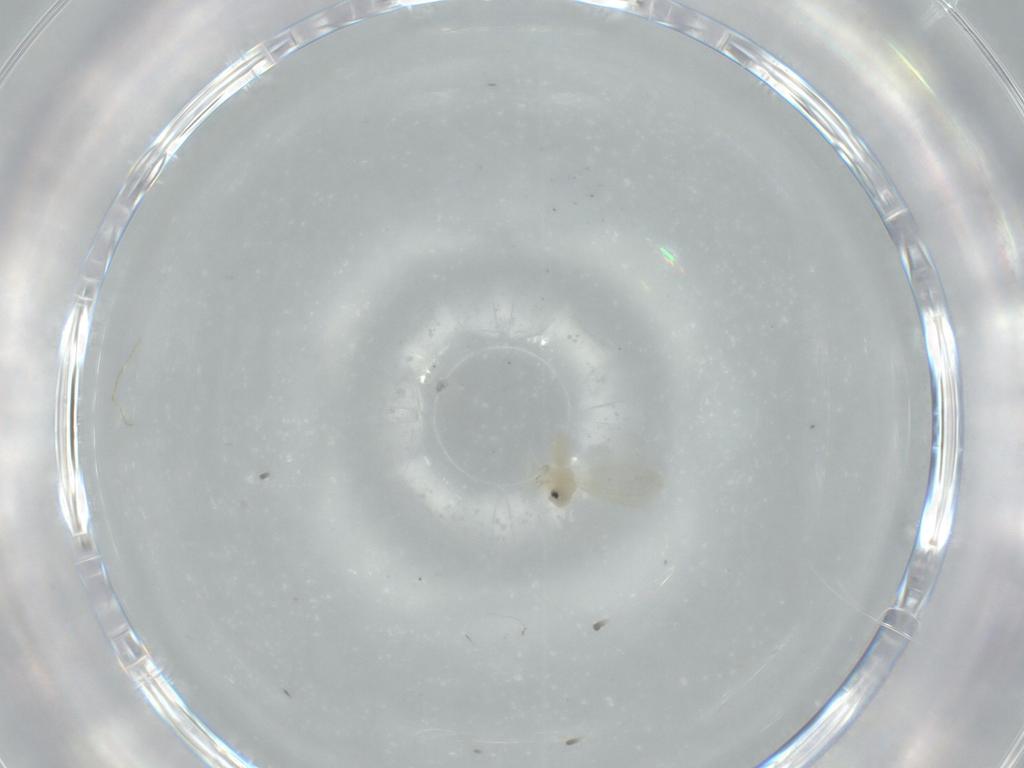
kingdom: Animalia
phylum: Arthropoda
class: Insecta
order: Hemiptera
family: Aleyrodidae
